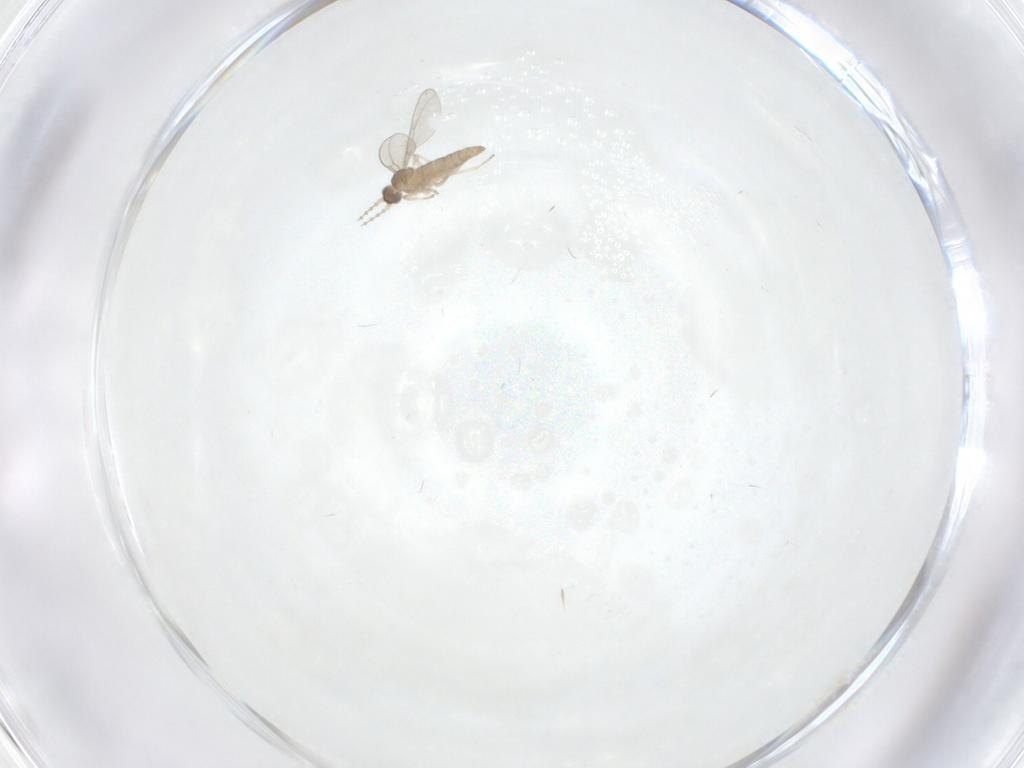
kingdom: Animalia
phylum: Arthropoda
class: Insecta
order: Diptera
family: Cecidomyiidae
